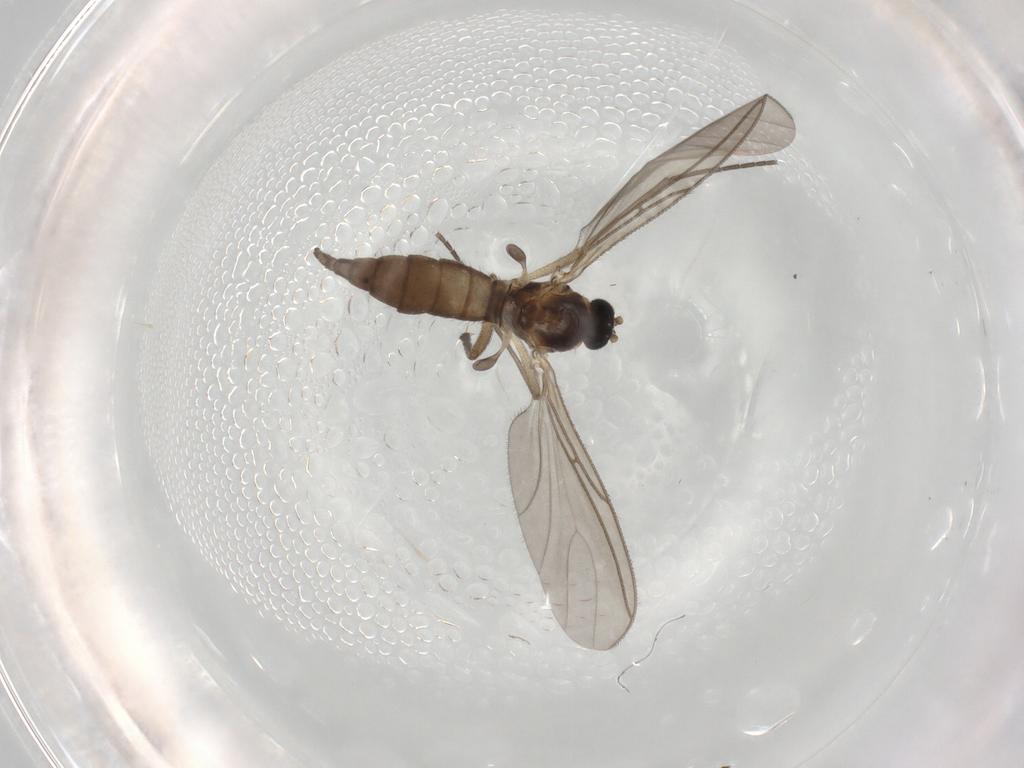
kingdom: Animalia
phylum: Arthropoda
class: Insecta
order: Diptera
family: Sciaridae
